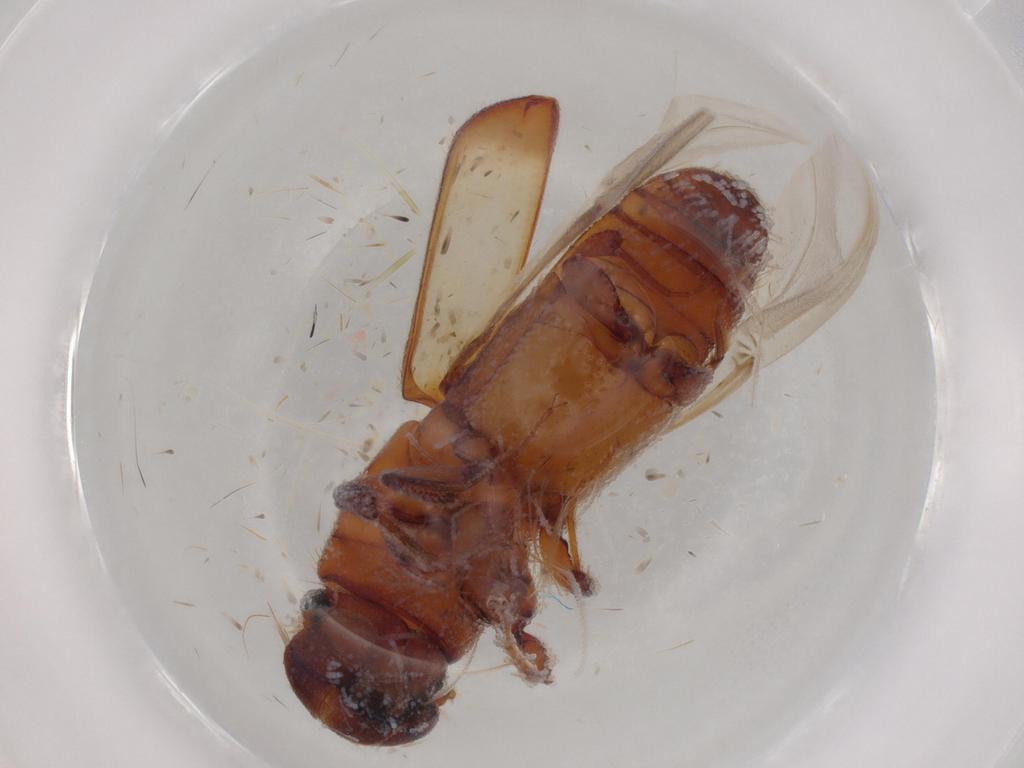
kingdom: Animalia
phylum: Arthropoda
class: Insecta
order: Coleoptera
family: Curculionidae
